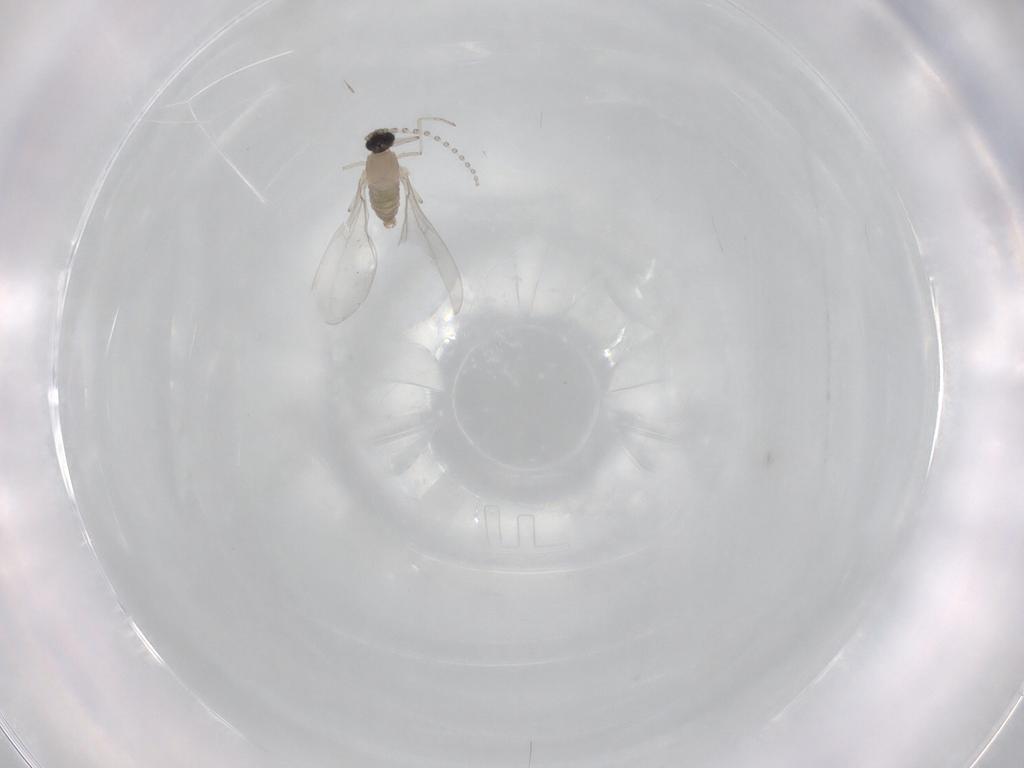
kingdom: Animalia
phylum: Arthropoda
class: Insecta
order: Diptera
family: Cecidomyiidae
